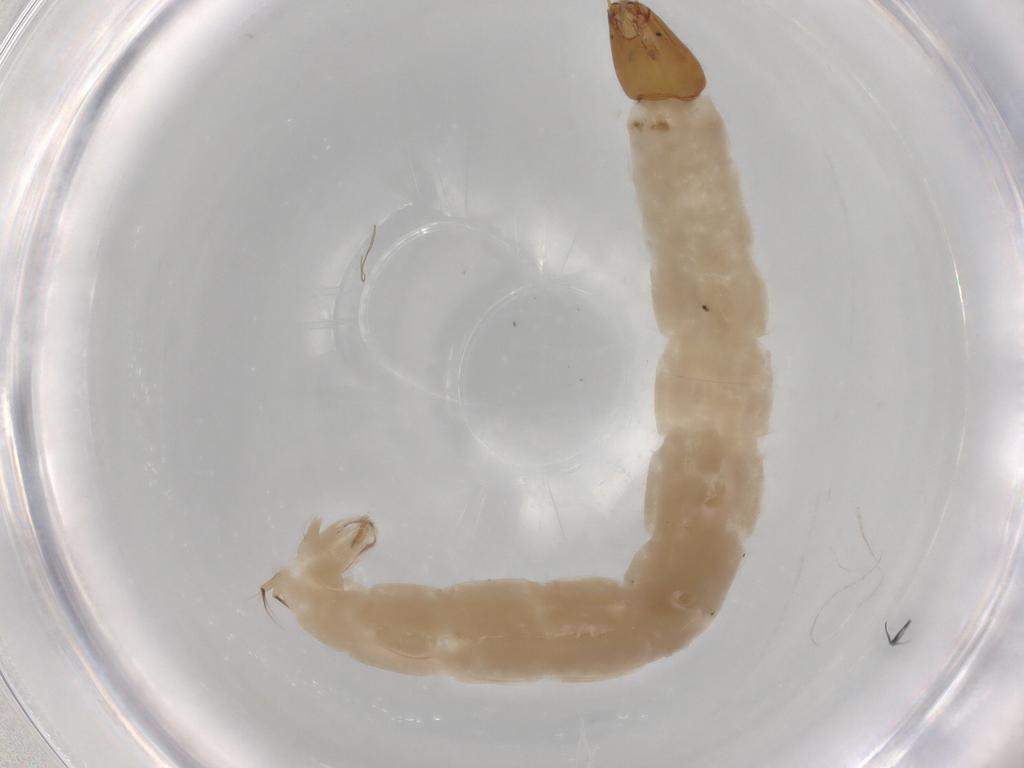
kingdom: Animalia
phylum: Arthropoda
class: Insecta
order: Diptera
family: Chironomidae
